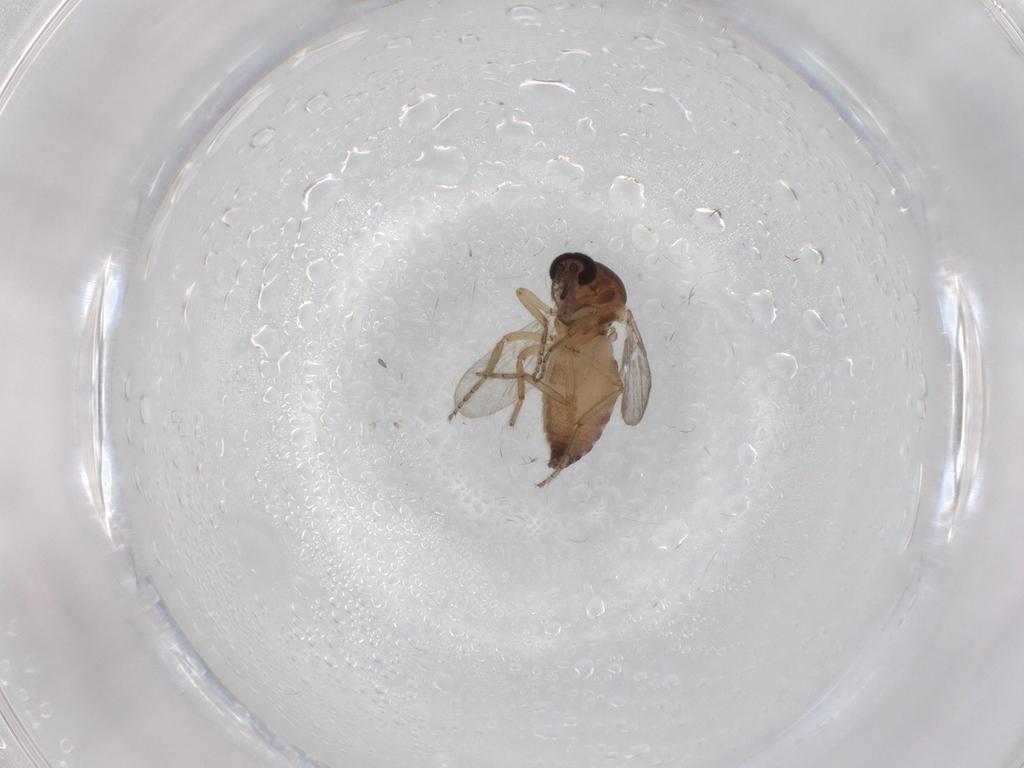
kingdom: Animalia
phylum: Arthropoda
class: Insecta
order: Diptera
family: Ceratopogonidae
